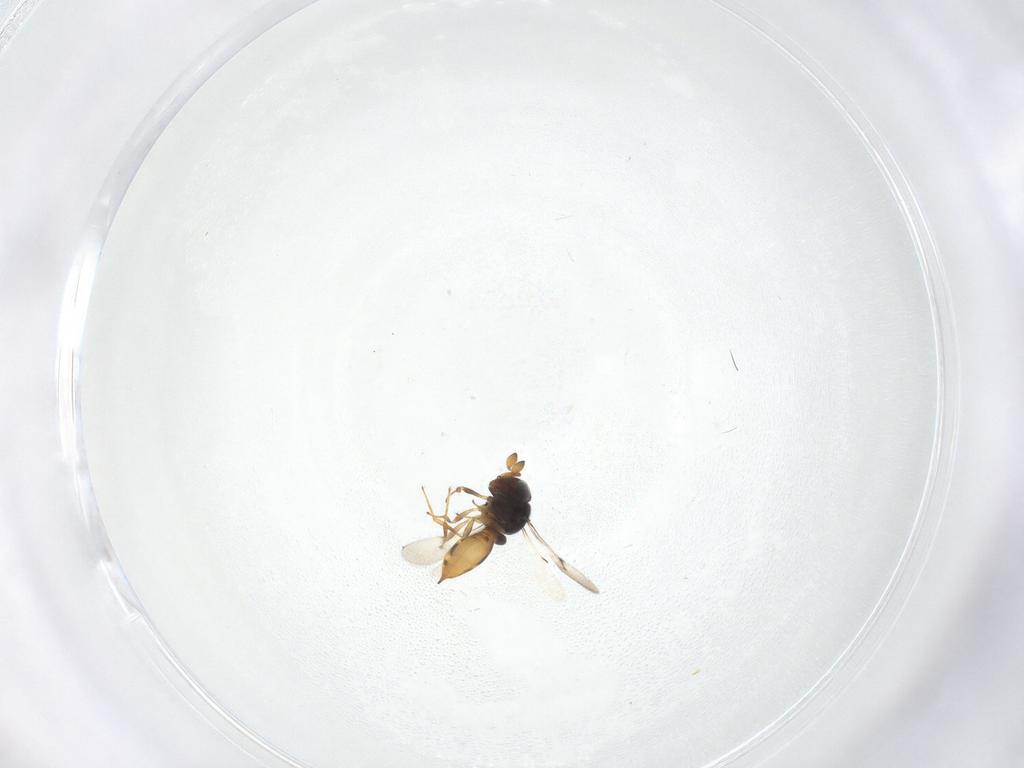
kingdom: Animalia
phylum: Arthropoda
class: Insecta
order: Hymenoptera
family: Scelionidae
